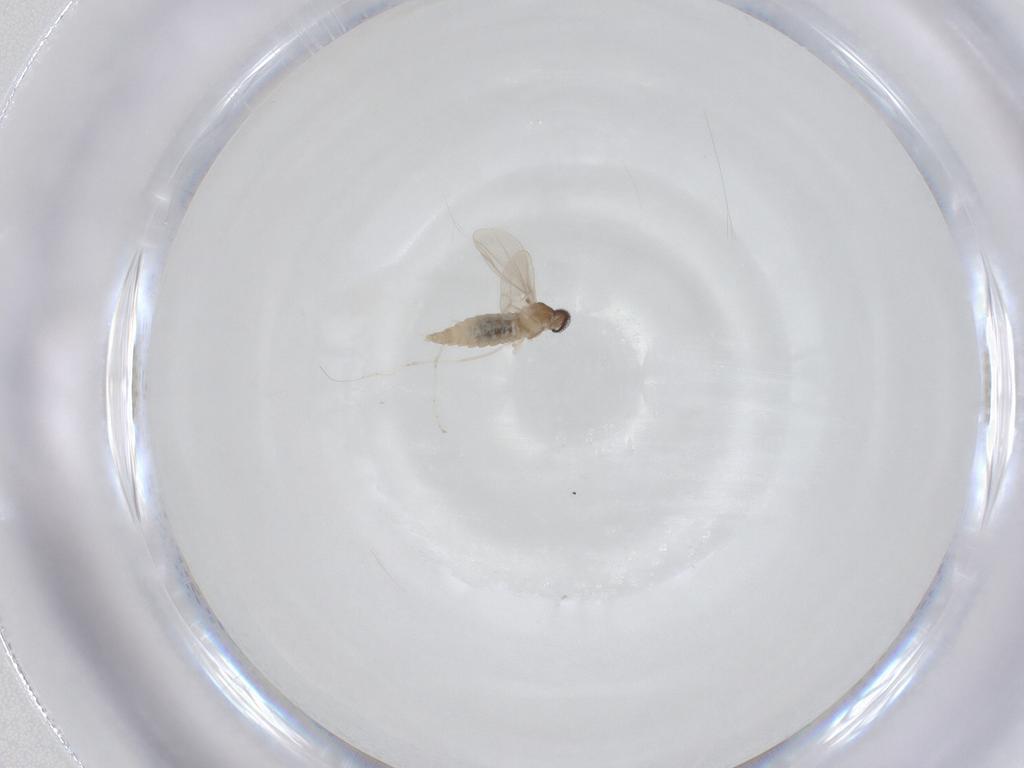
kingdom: Animalia
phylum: Arthropoda
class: Insecta
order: Diptera
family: Cecidomyiidae
